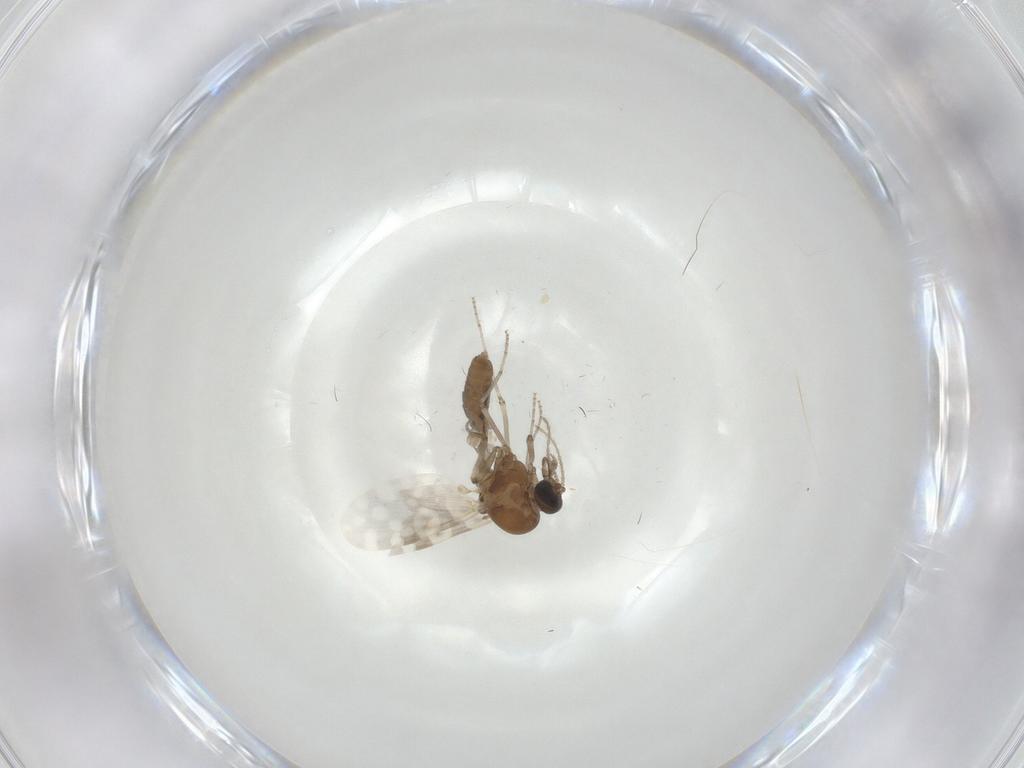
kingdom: Animalia
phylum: Arthropoda
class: Insecta
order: Diptera
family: Cecidomyiidae
